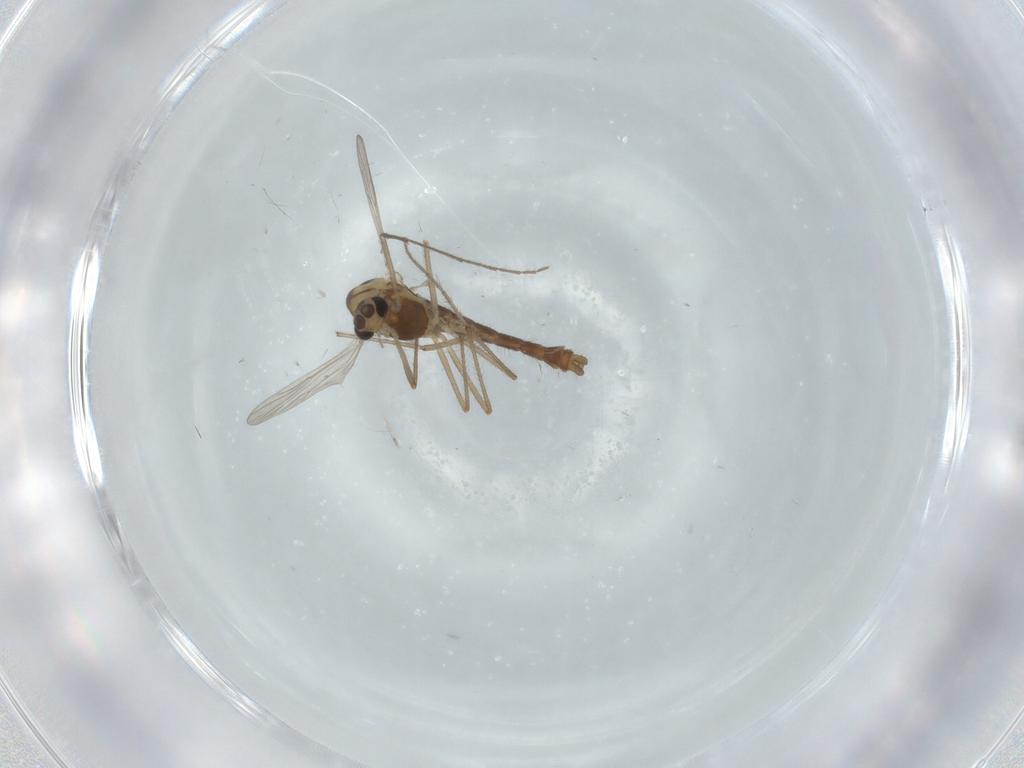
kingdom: Animalia
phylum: Arthropoda
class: Insecta
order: Diptera
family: Chironomidae
